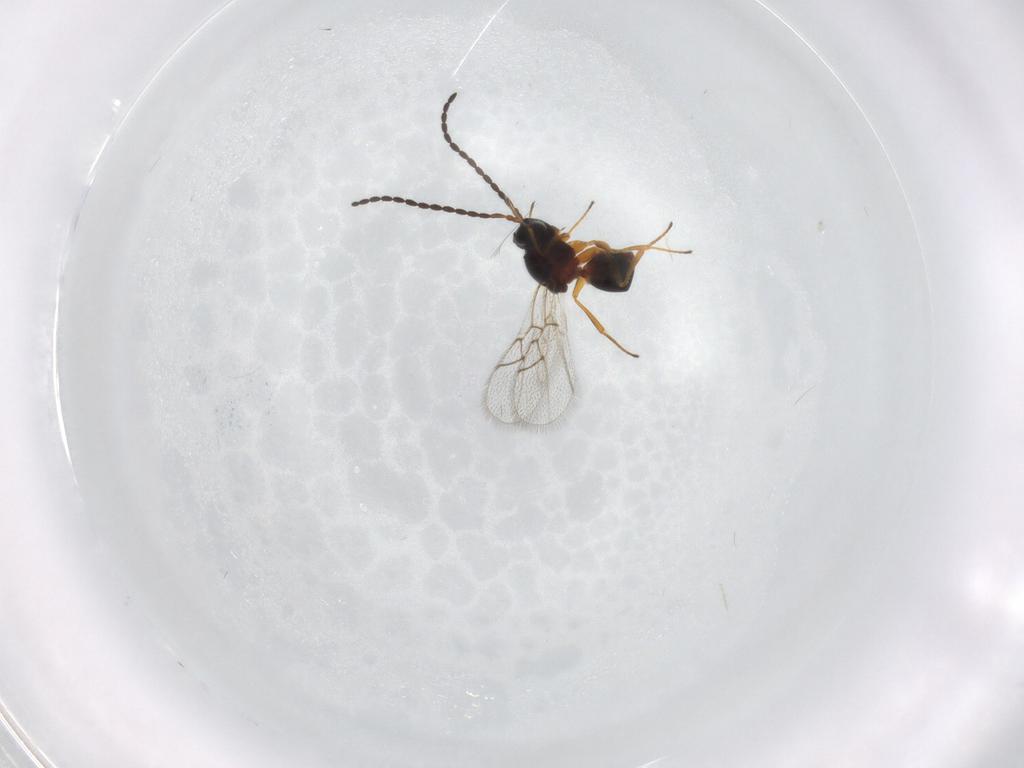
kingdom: Animalia
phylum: Arthropoda
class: Insecta
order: Hymenoptera
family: Figitidae
